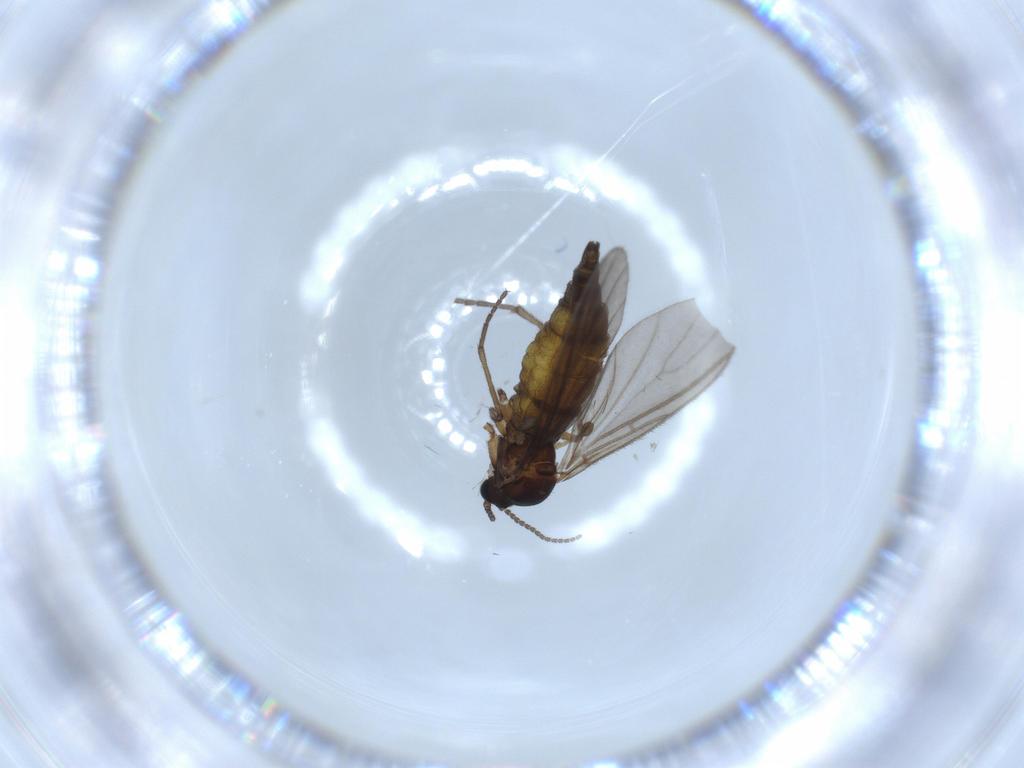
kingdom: Animalia
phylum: Arthropoda
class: Insecta
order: Diptera
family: Sciaridae
